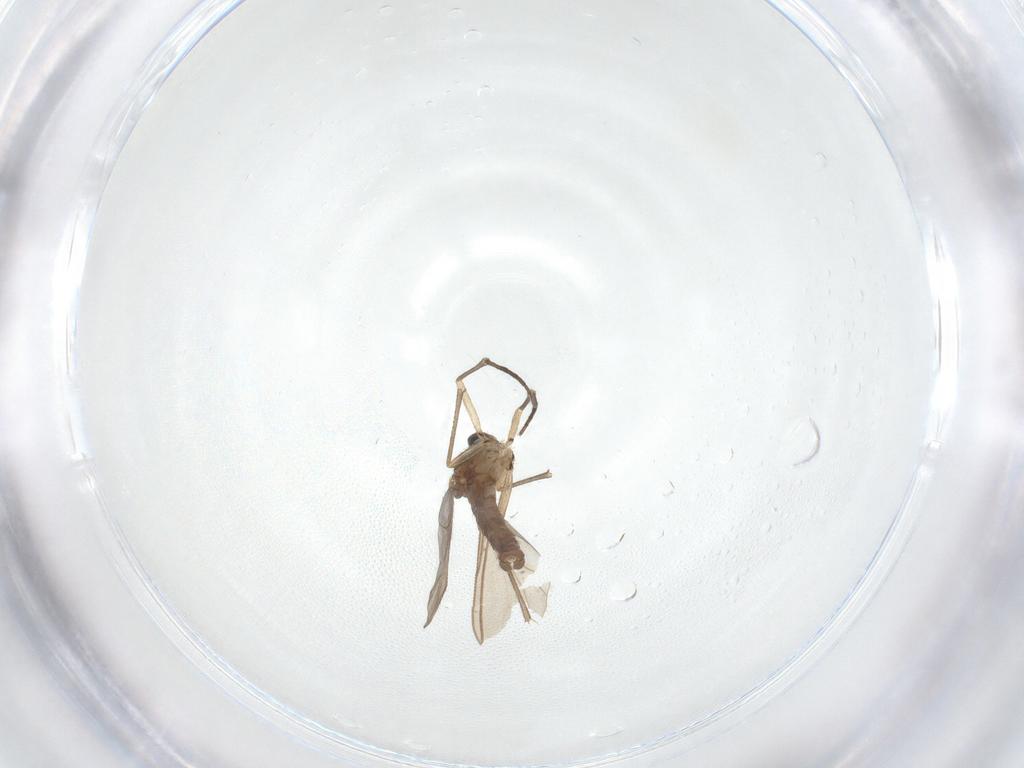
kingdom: Animalia
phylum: Arthropoda
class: Insecta
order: Diptera
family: Sciaridae
